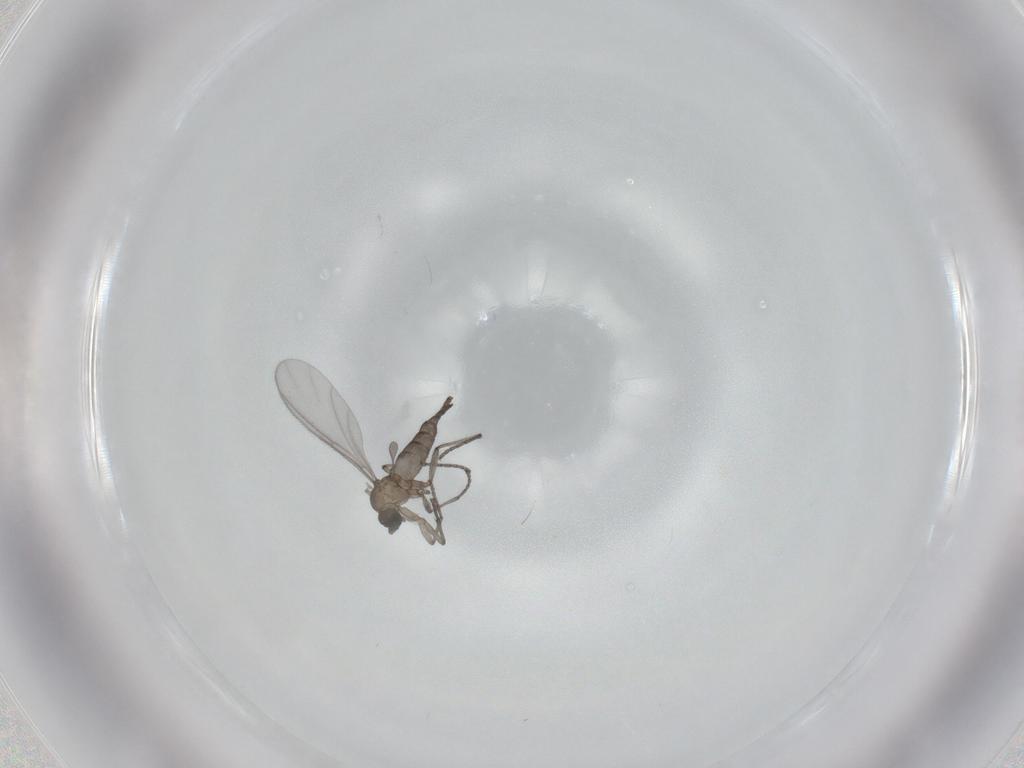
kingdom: Animalia
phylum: Arthropoda
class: Insecta
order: Diptera
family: Sciaridae
